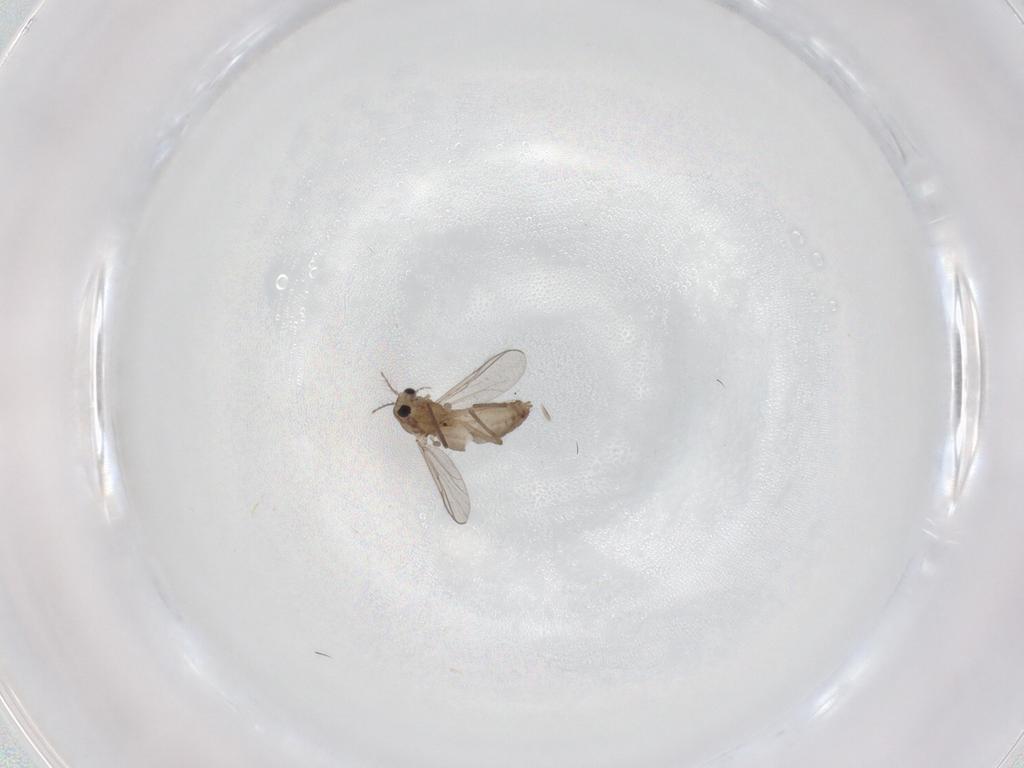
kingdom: Animalia
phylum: Arthropoda
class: Insecta
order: Diptera
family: Chironomidae
